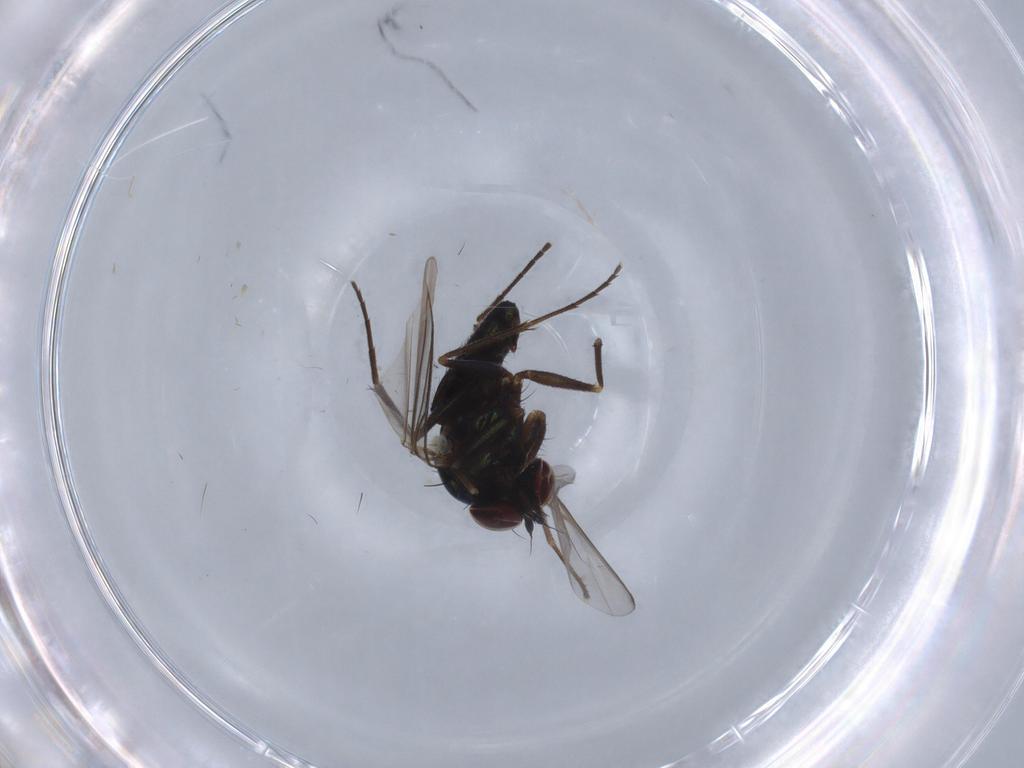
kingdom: Animalia
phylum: Arthropoda
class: Insecta
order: Diptera
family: Dolichopodidae
